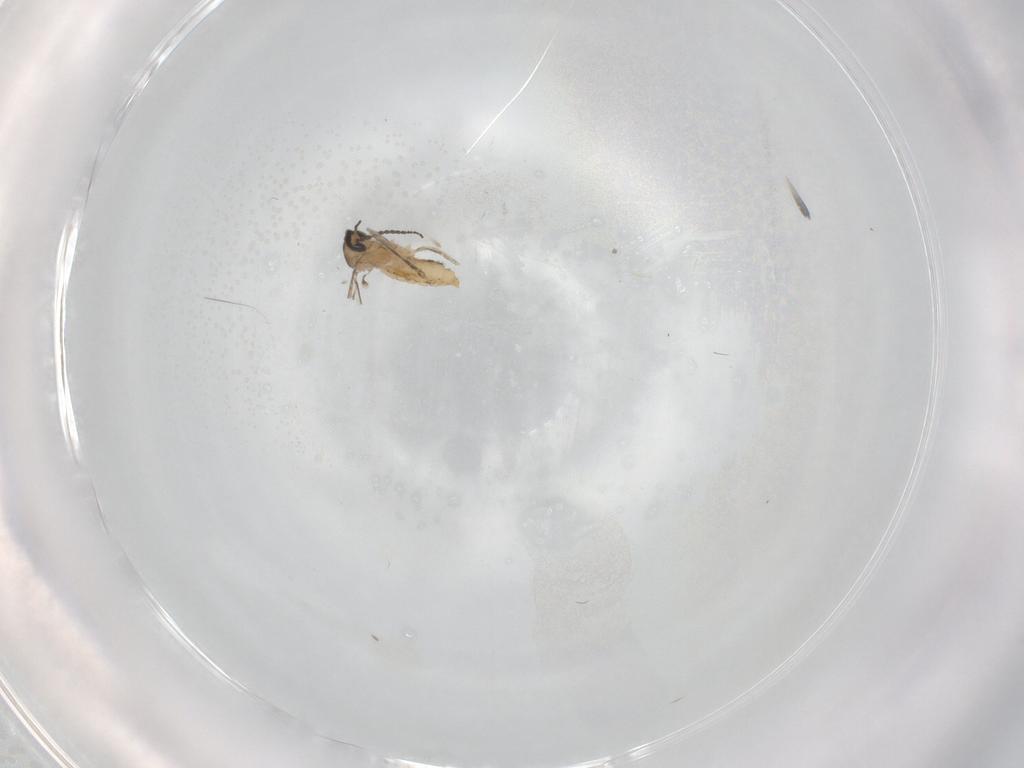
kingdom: Animalia
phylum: Arthropoda
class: Insecta
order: Diptera
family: Cecidomyiidae
